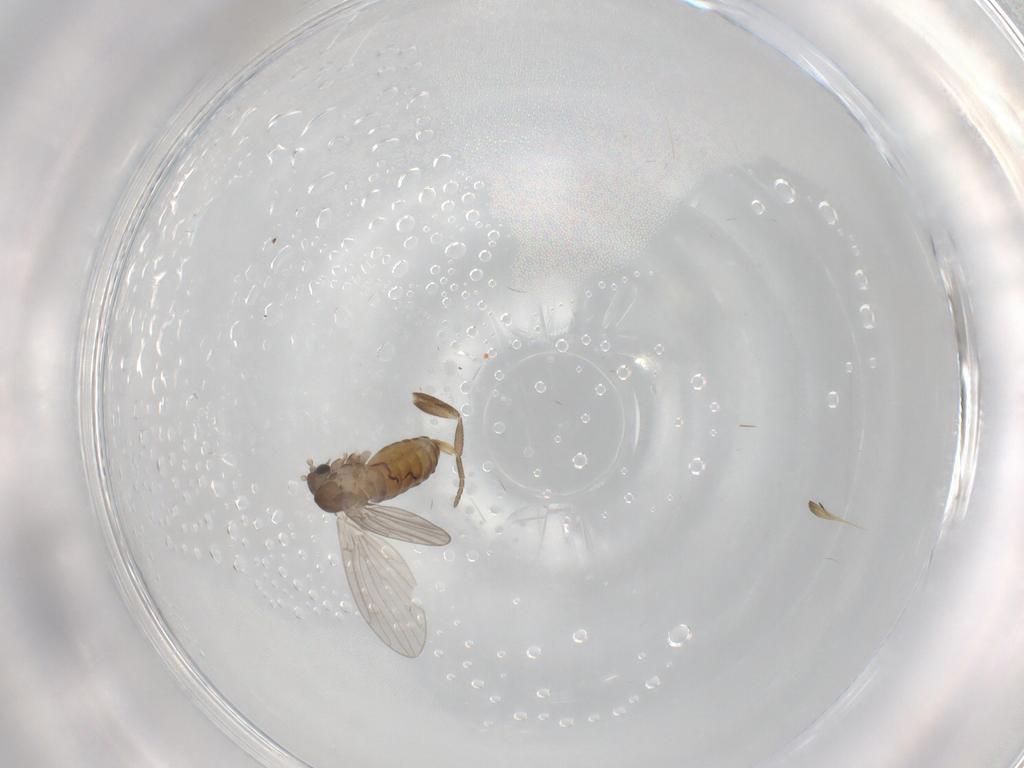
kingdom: Animalia
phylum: Arthropoda
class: Insecta
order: Diptera
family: Phoridae
